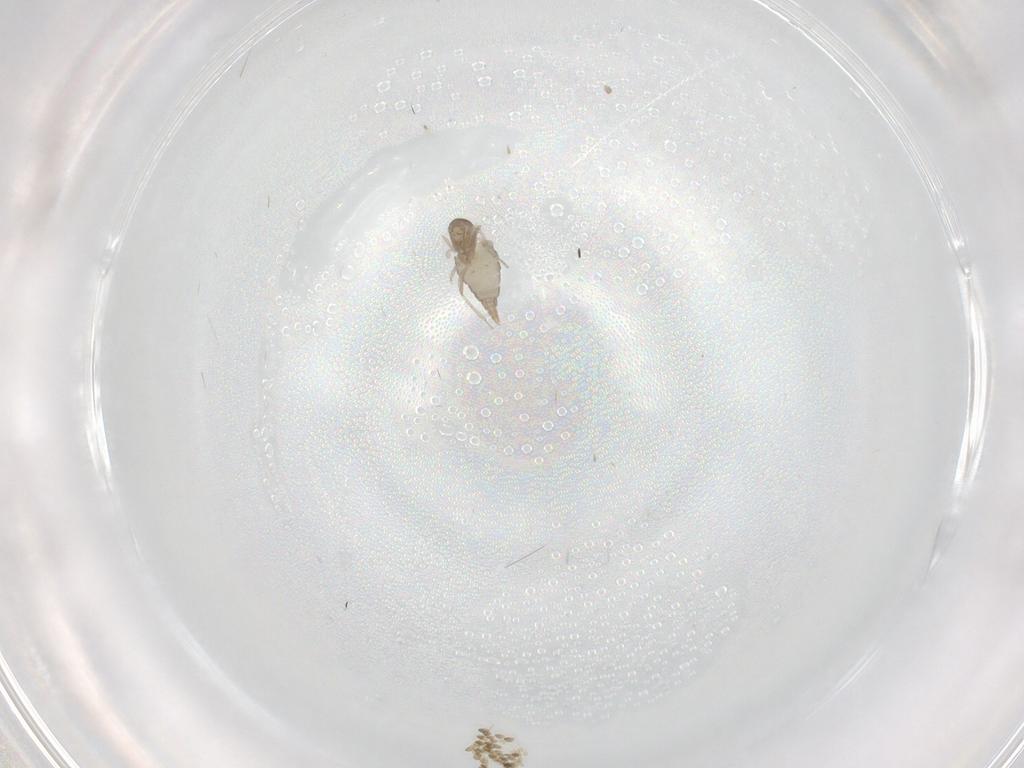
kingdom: Animalia
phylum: Arthropoda
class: Insecta
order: Diptera
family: Cecidomyiidae
